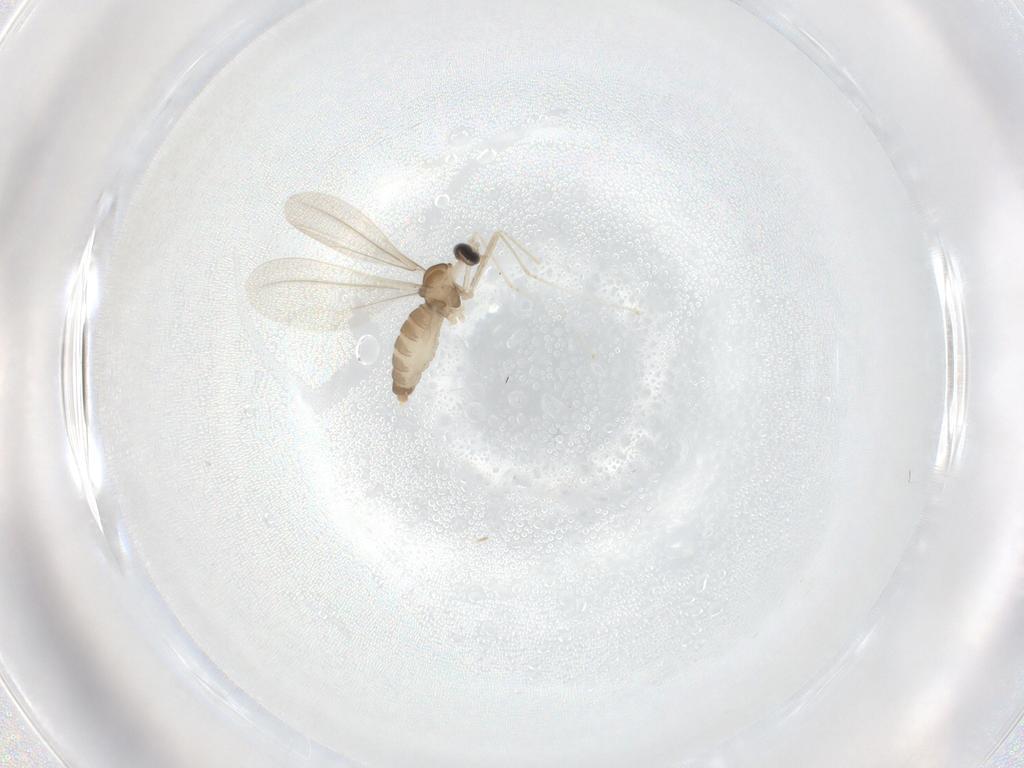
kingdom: Animalia
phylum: Arthropoda
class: Insecta
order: Diptera
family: Cecidomyiidae
